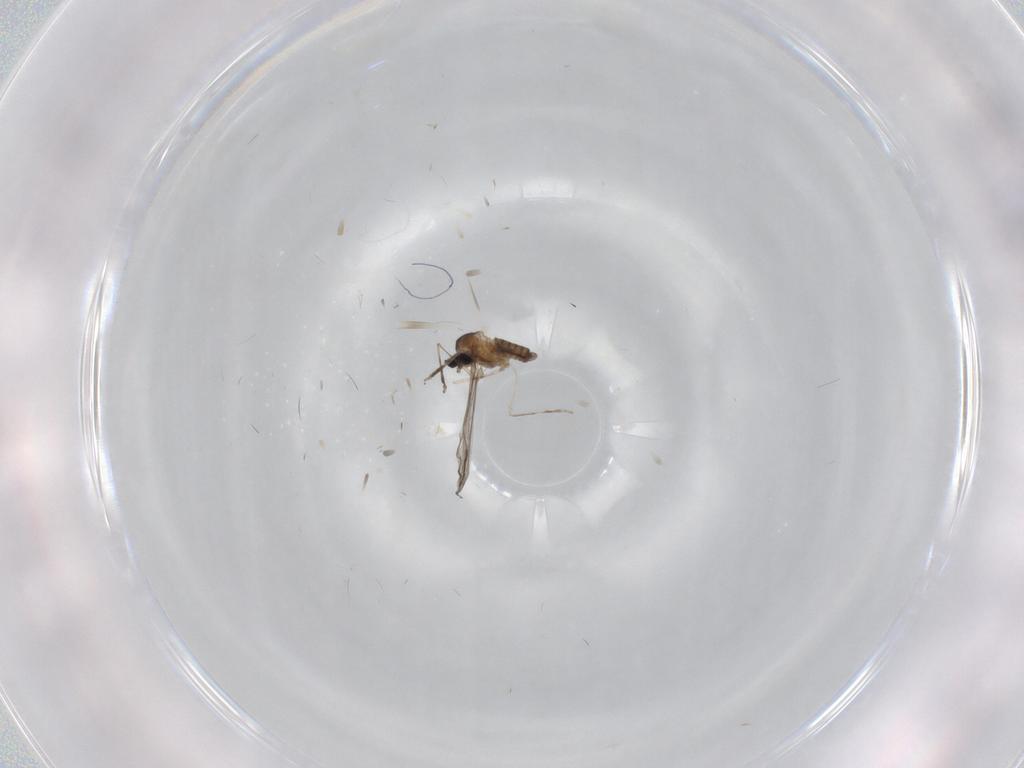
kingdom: Animalia
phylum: Arthropoda
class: Insecta
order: Diptera
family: Cecidomyiidae
